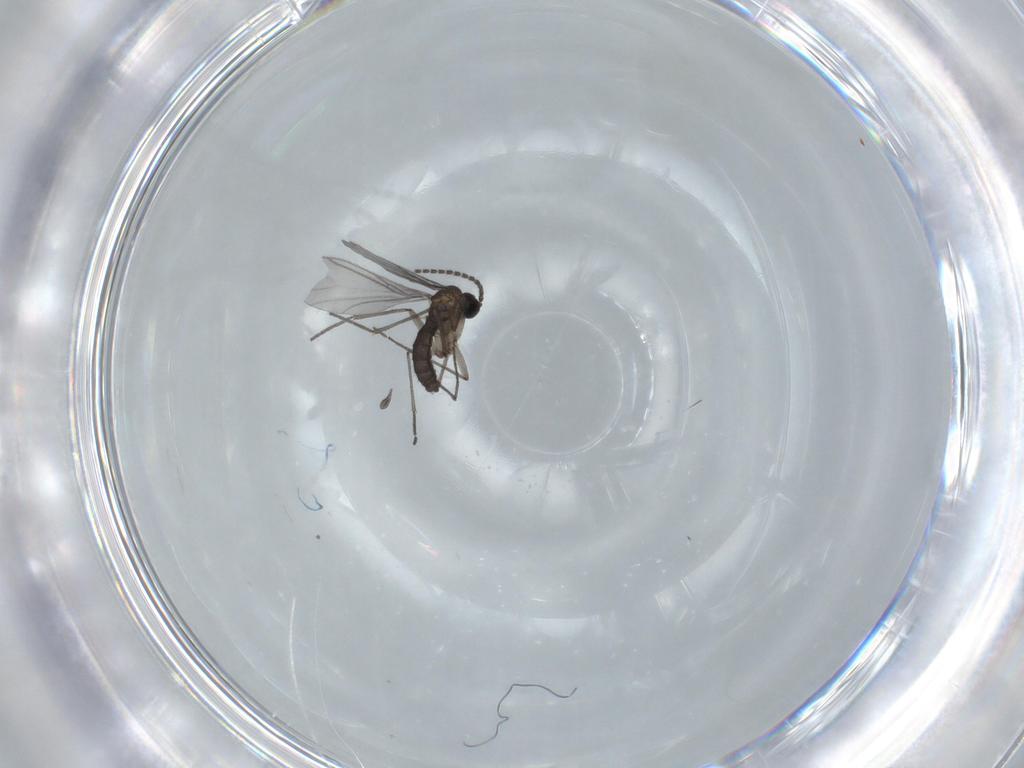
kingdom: Animalia
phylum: Arthropoda
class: Insecta
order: Diptera
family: Sciaridae
